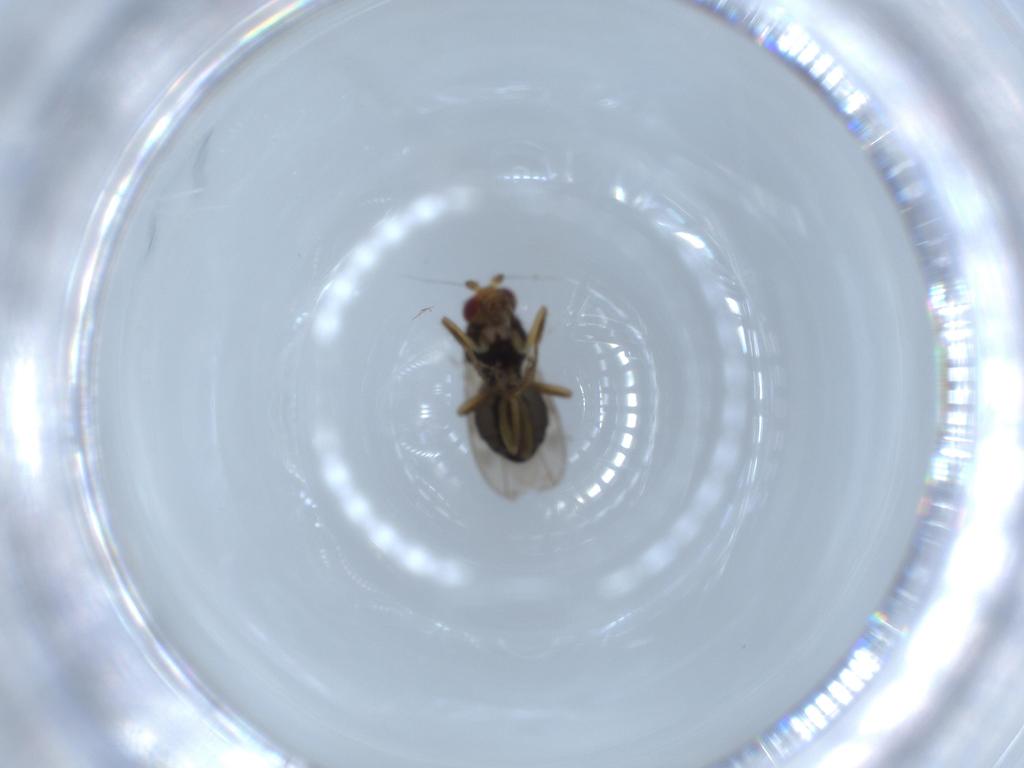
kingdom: Animalia
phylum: Arthropoda
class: Insecta
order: Diptera
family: Sphaeroceridae
